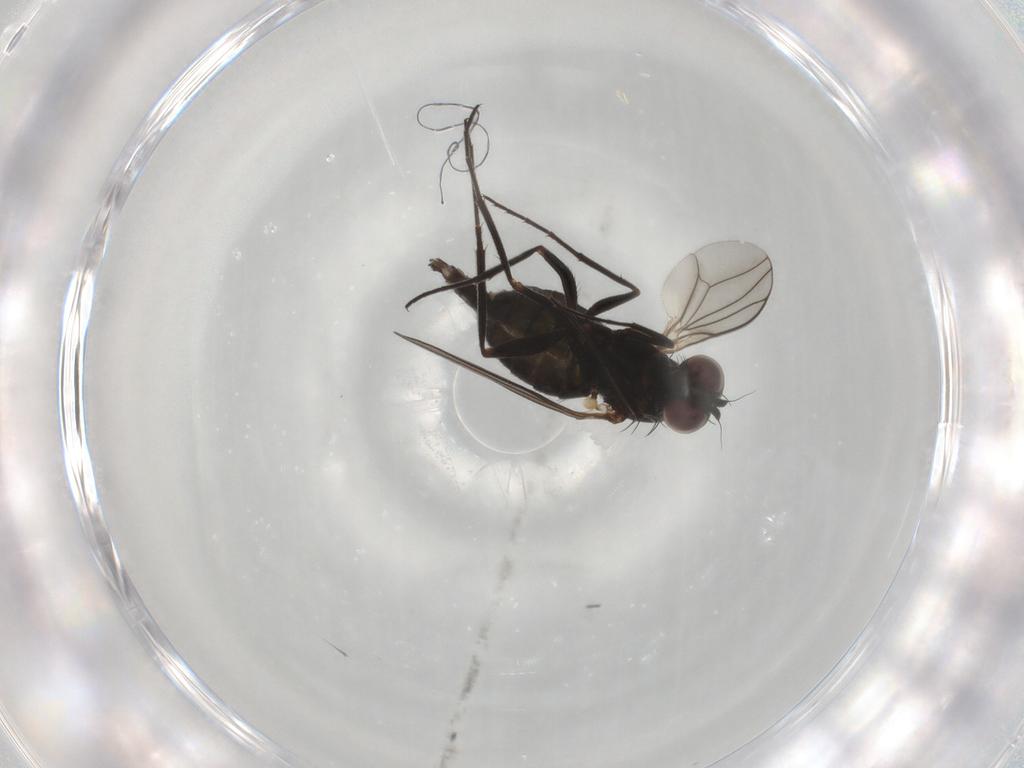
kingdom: Animalia
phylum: Arthropoda
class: Insecta
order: Diptera
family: Dolichopodidae
